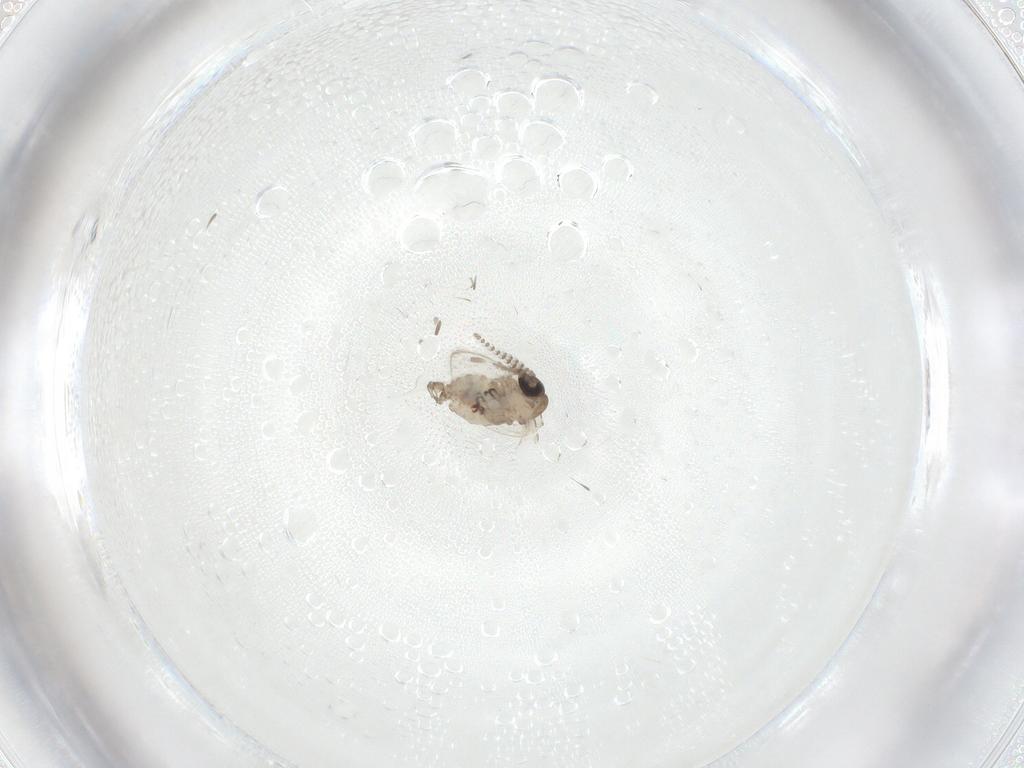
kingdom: Animalia
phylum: Arthropoda
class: Insecta
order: Diptera
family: Psychodidae
